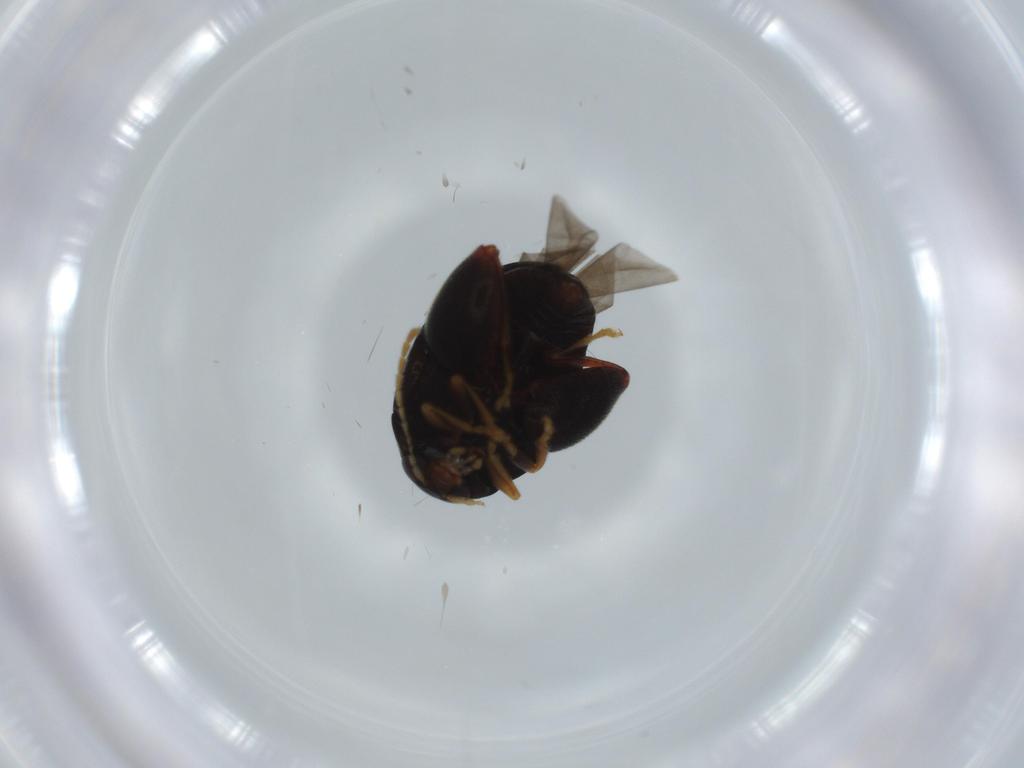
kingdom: Animalia
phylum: Arthropoda
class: Insecta
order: Coleoptera
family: Chrysomelidae
